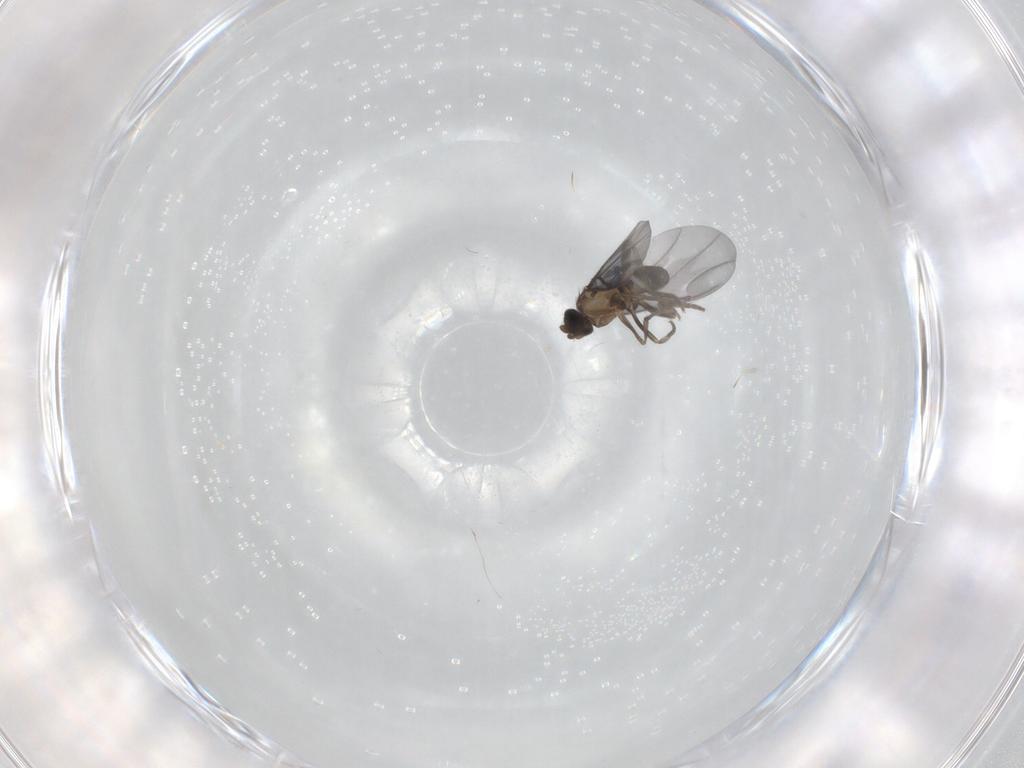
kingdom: Animalia
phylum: Arthropoda
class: Insecta
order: Diptera
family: Phoridae
